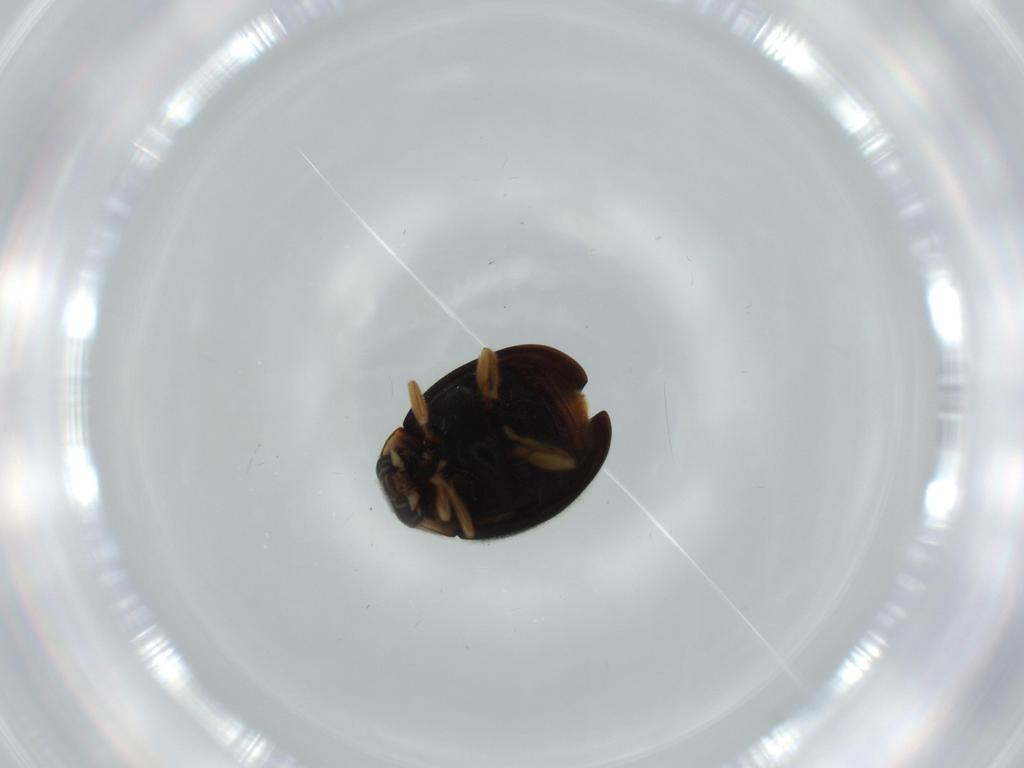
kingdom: Animalia
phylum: Arthropoda
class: Insecta
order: Coleoptera
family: Coccinellidae
